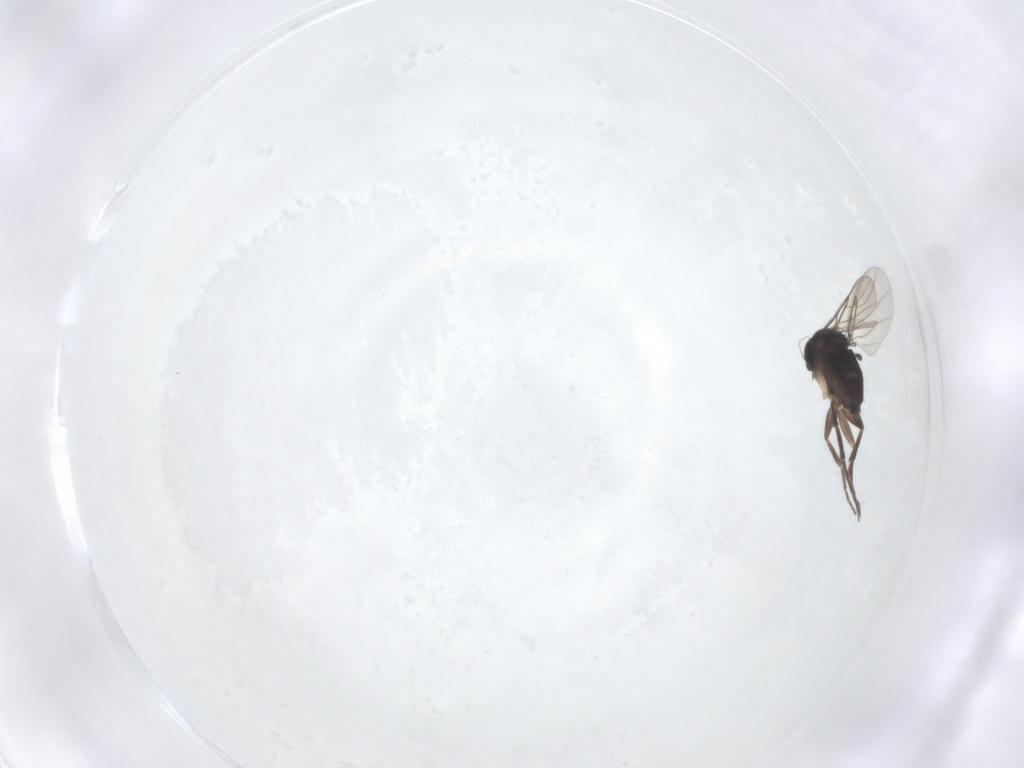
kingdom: Animalia
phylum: Arthropoda
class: Insecta
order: Diptera
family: Phoridae
